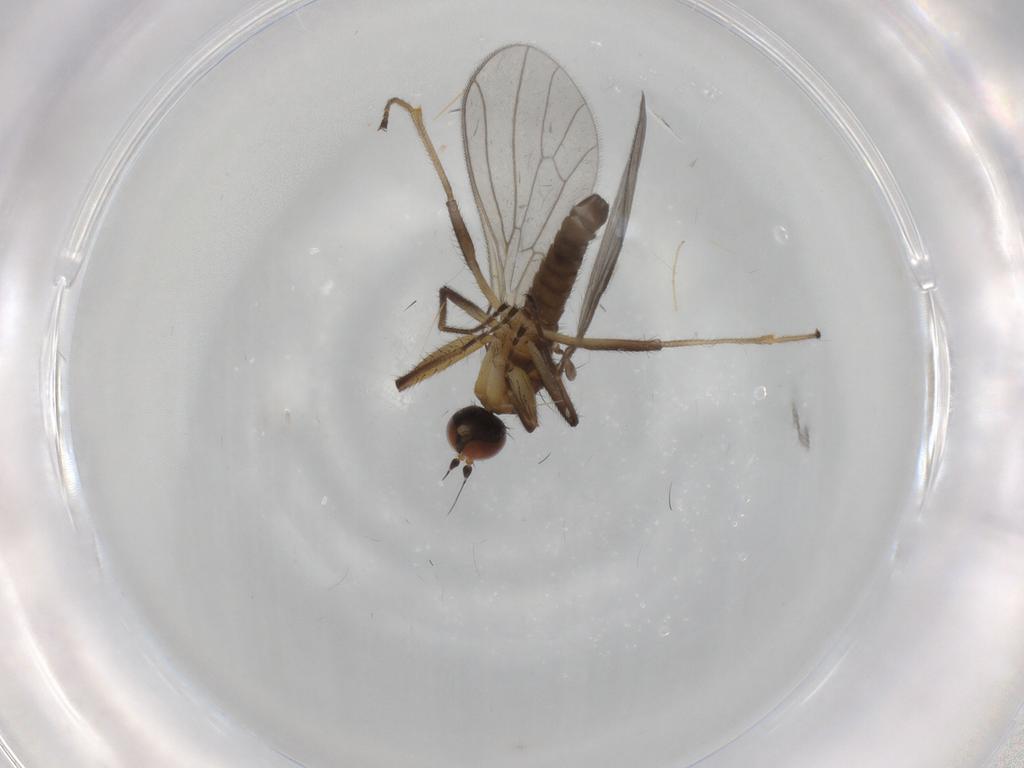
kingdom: Animalia
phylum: Arthropoda
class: Insecta
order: Diptera
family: Empididae
